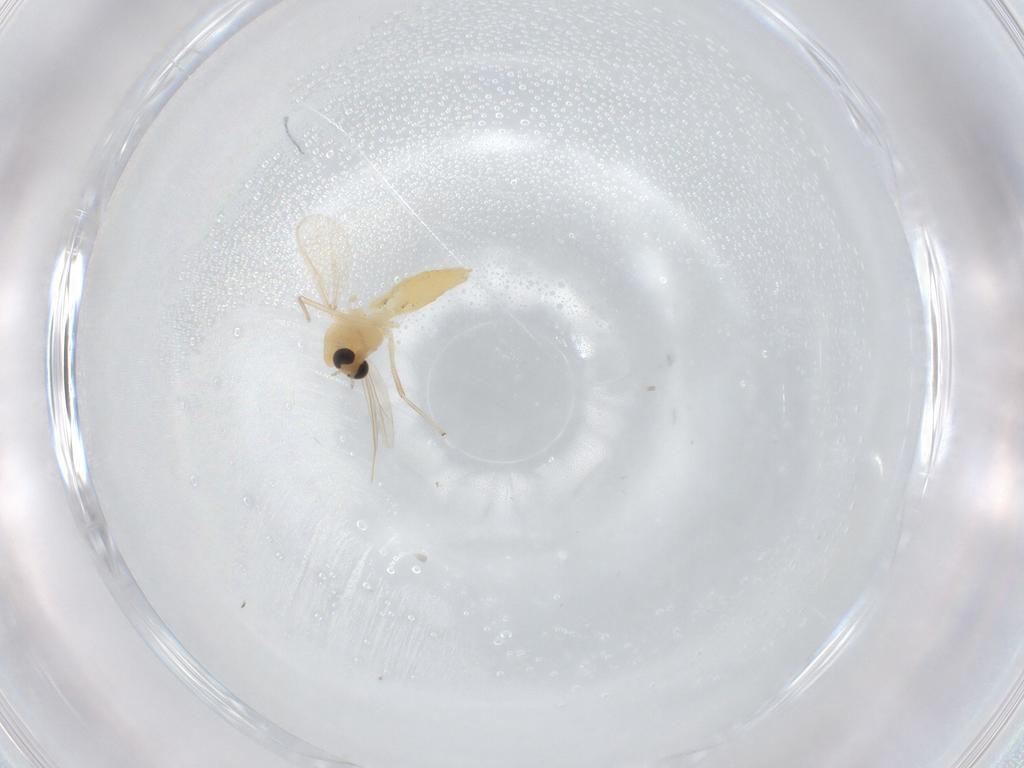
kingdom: Animalia
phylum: Arthropoda
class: Insecta
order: Diptera
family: Chironomidae
